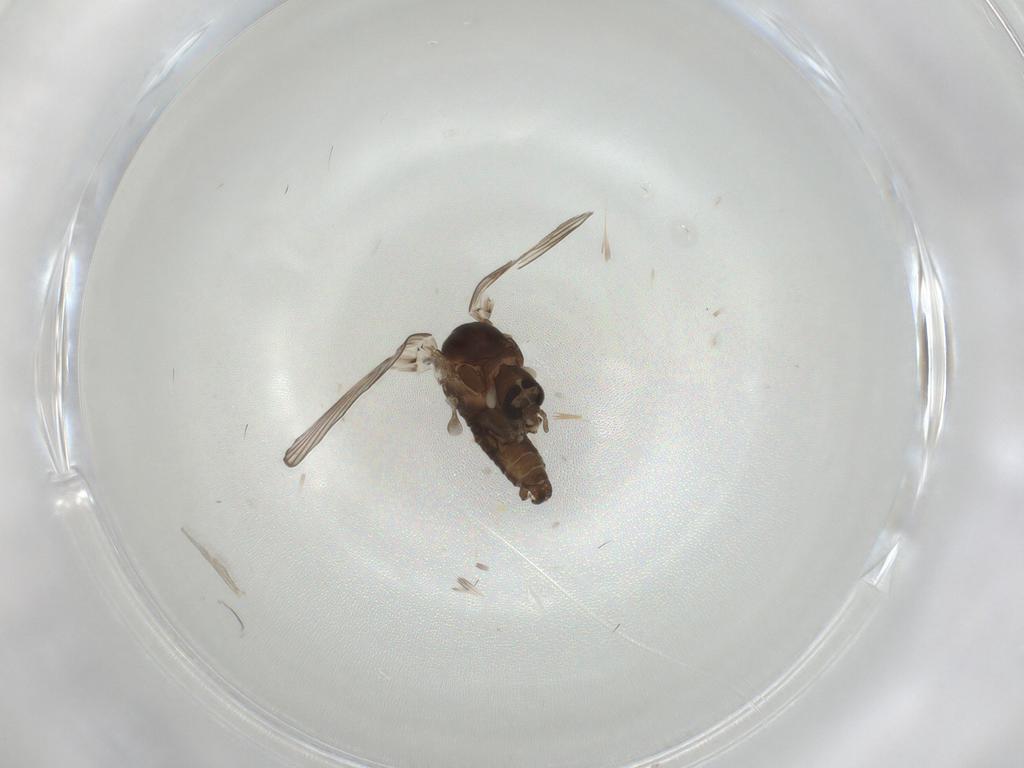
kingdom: Animalia
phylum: Arthropoda
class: Insecta
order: Diptera
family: Psychodidae
